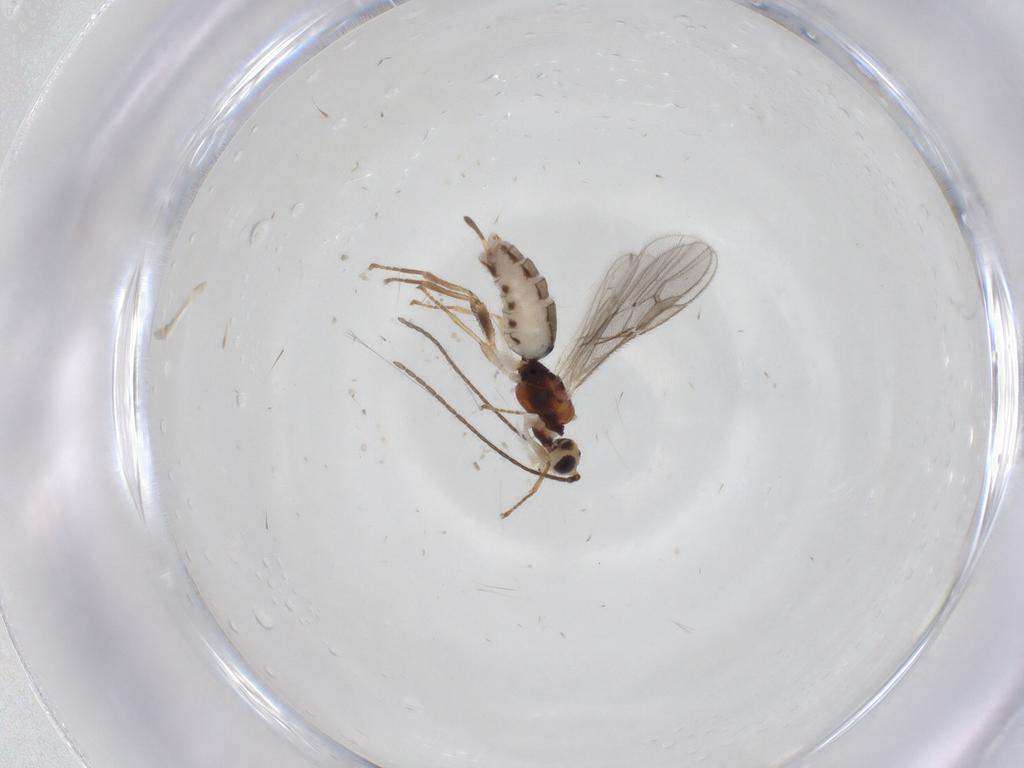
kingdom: Animalia
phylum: Arthropoda
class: Insecta
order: Hymenoptera
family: Braconidae
